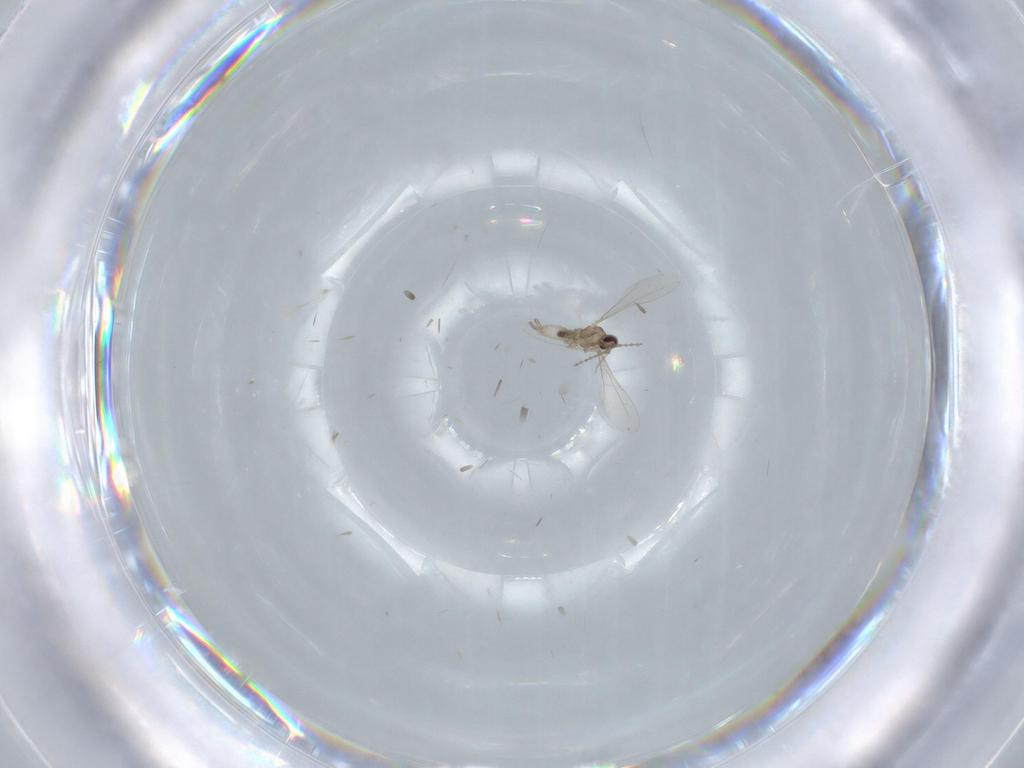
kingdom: Animalia
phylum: Arthropoda
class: Insecta
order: Diptera
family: Cecidomyiidae
